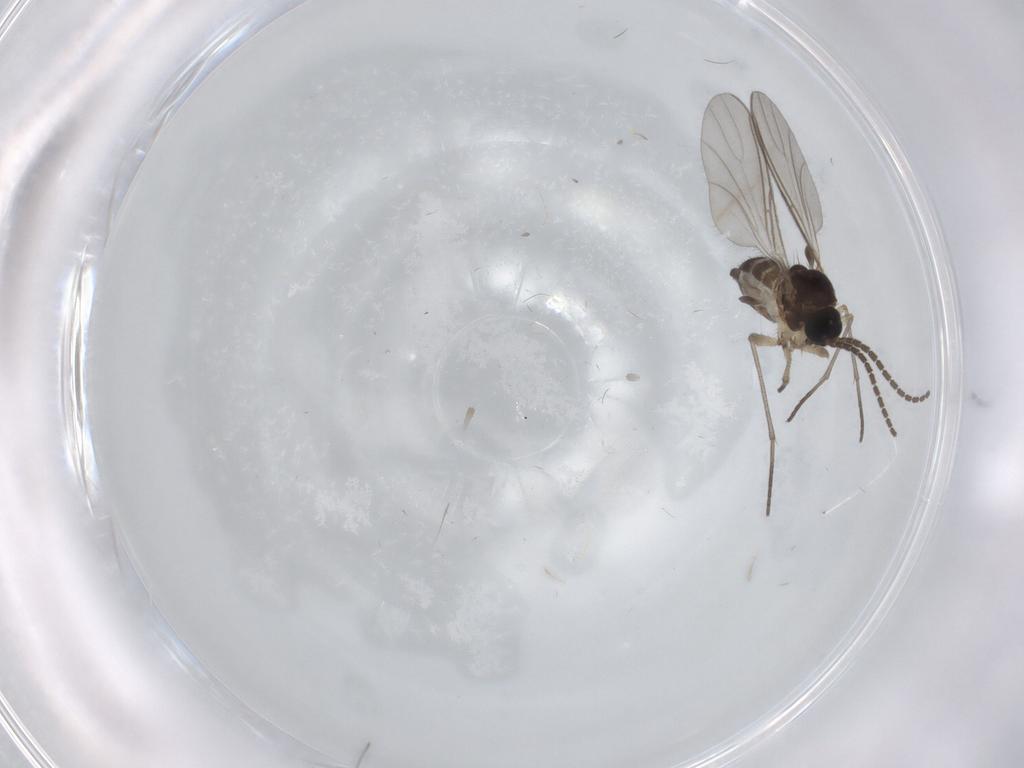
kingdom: Animalia
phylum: Arthropoda
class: Insecta
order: Diptera
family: Sciaridae
